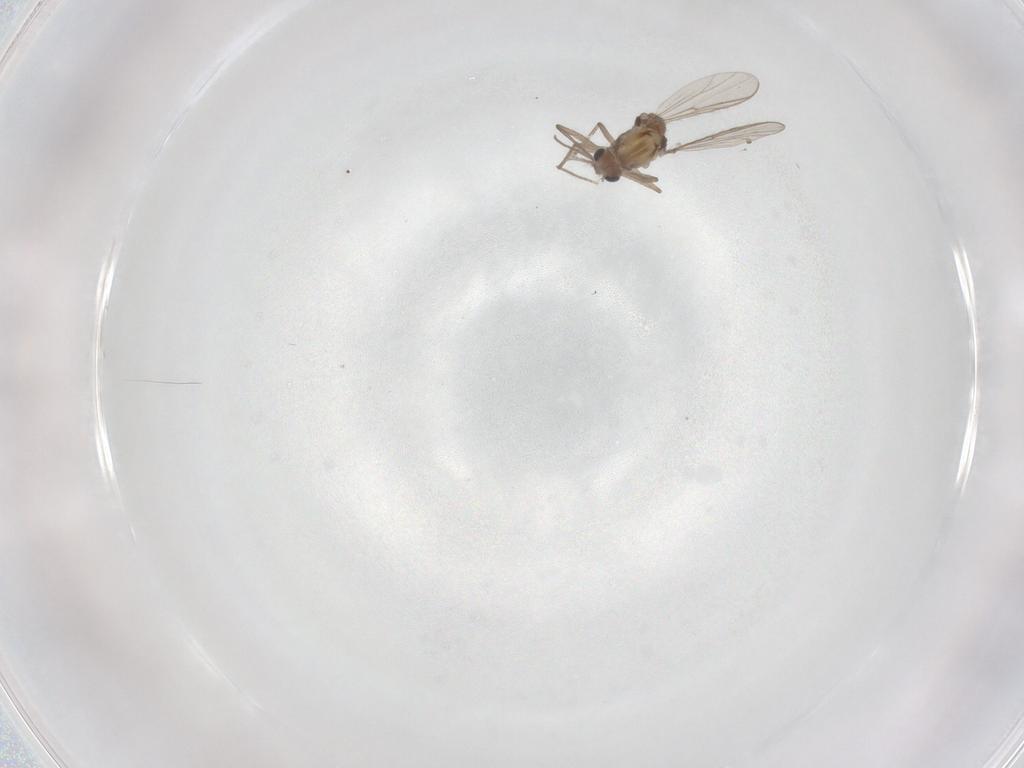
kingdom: Animalia
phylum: Arthropoda
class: Insecta
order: Diptera
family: Chironomidae
